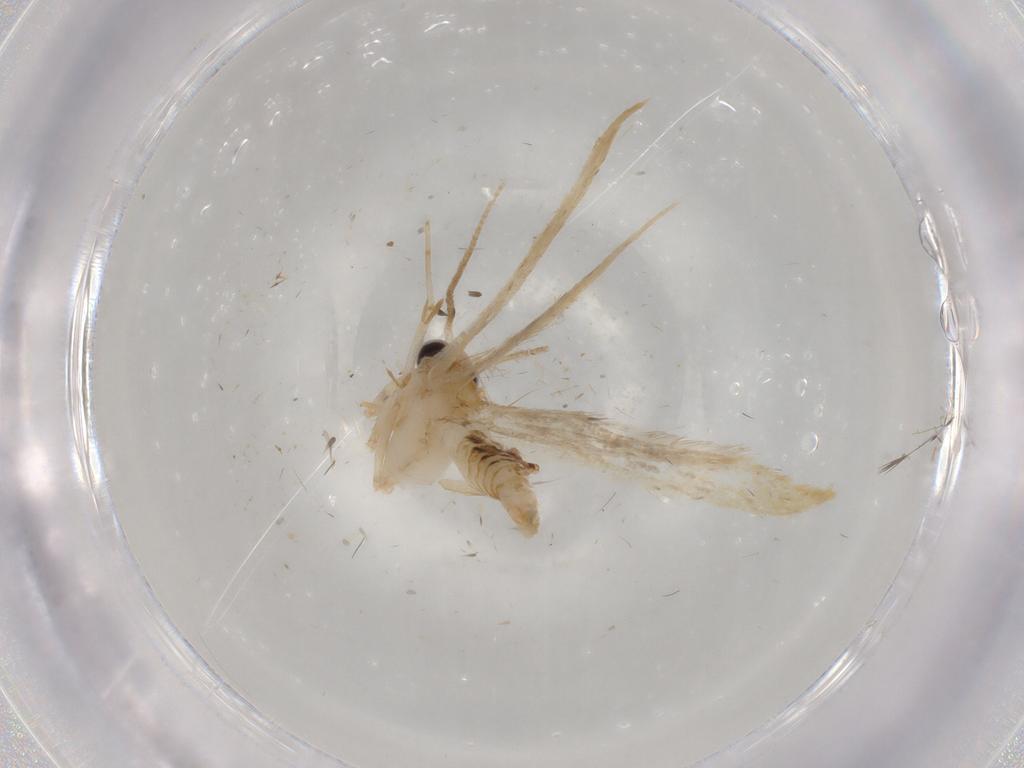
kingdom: Animalia
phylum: Arthropoda
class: Insecta
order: Lepidoptera
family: Tineidae
